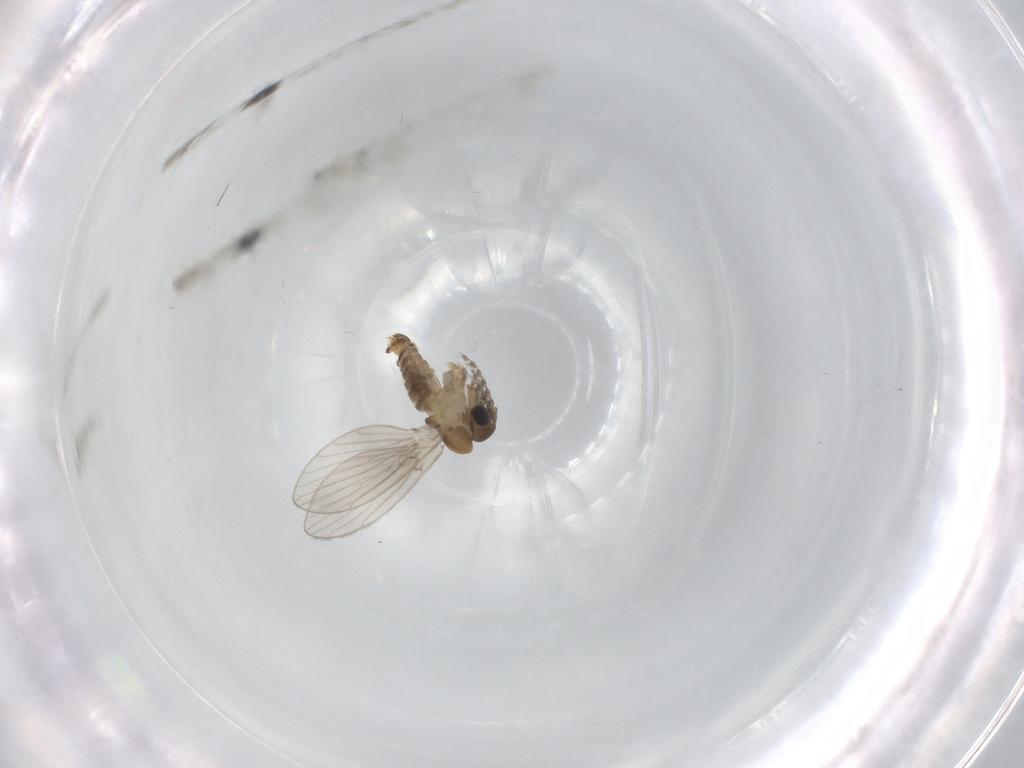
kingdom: Animalia
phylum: Arthropoda
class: Insecta
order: Diptera
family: Psychodidae
